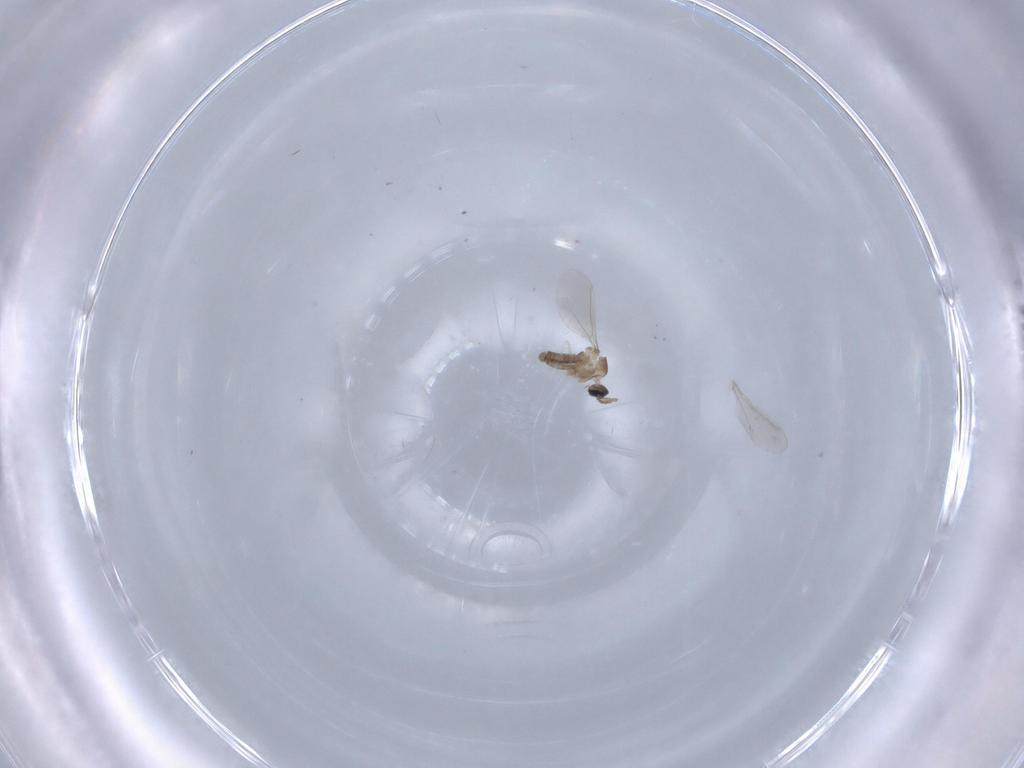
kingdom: Animalia
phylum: Arthropoda
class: Insecta
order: Diptera
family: Cecidomyiidae
